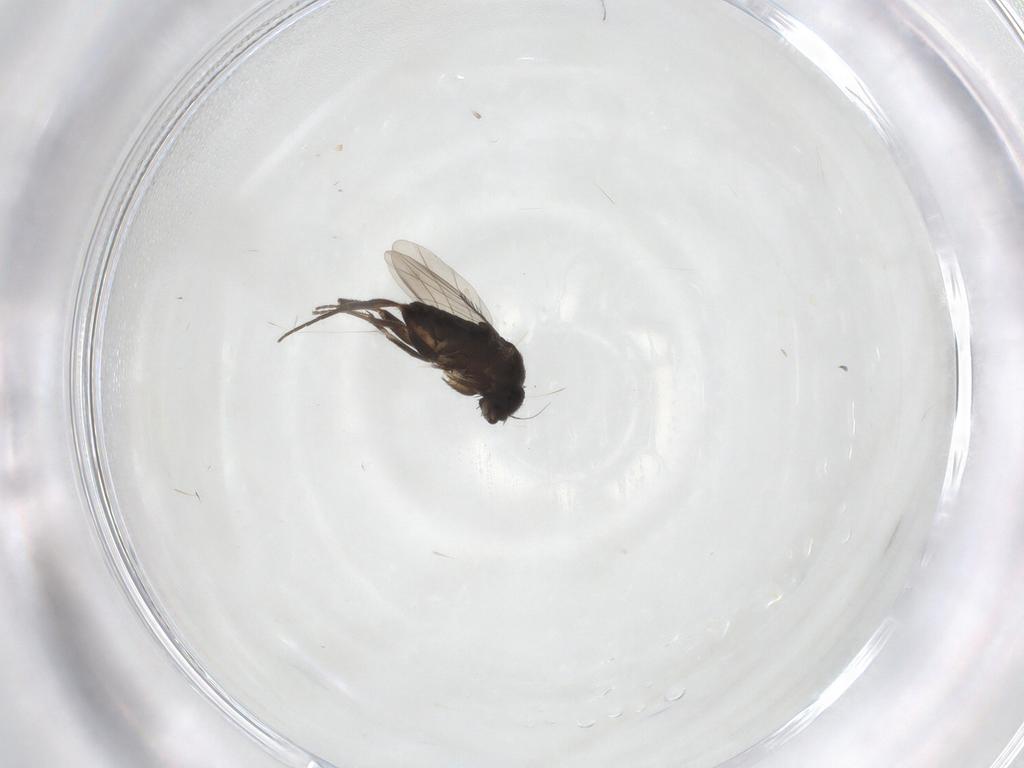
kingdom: Animalia
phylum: Arthropoda
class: Insecta
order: Diptera
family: Phoridae
